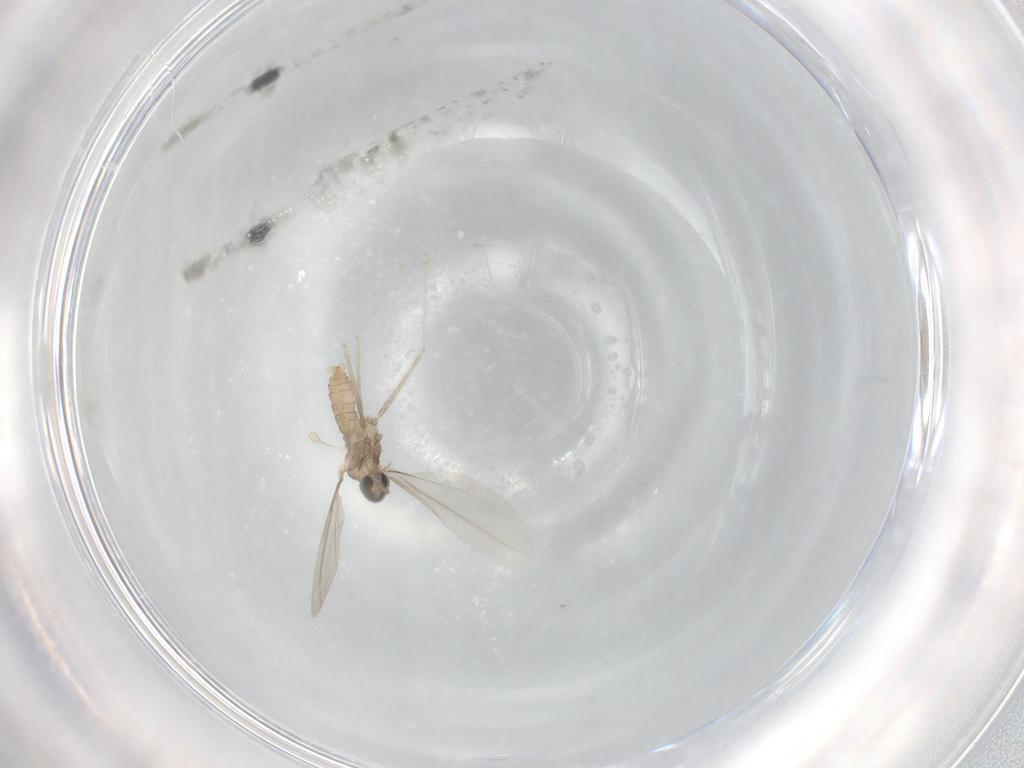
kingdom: Animalia
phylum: Arthropoda
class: Insecta
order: Diptera
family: Cecidomyiidae
